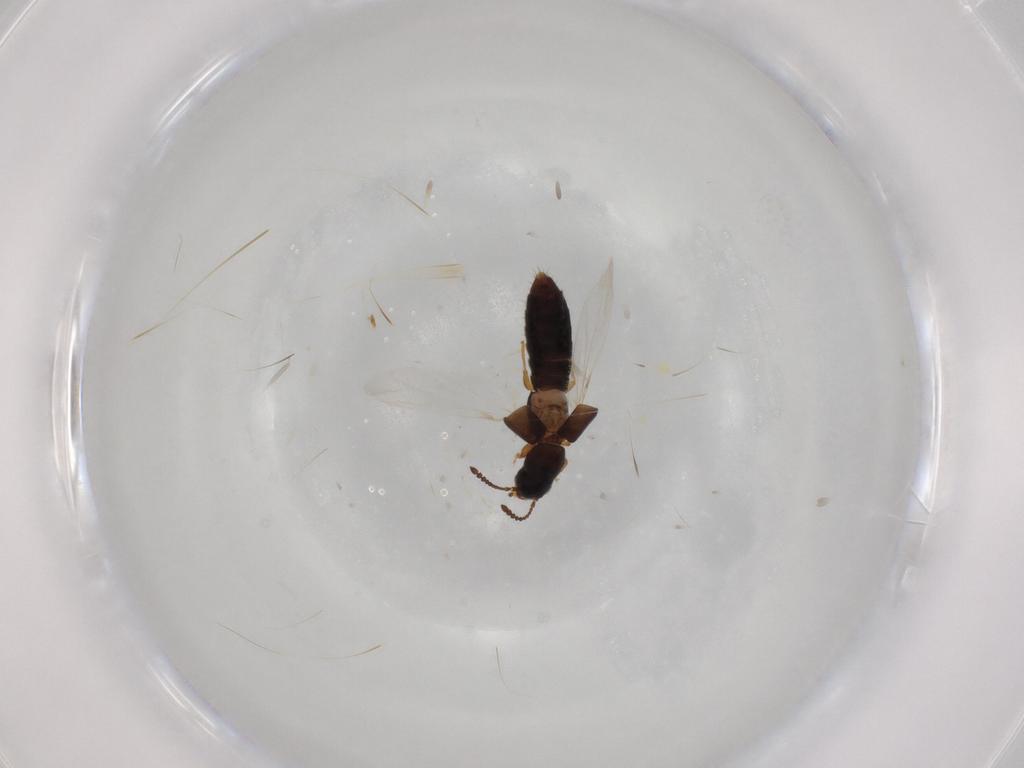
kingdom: Animalia
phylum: Arthropoda
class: Insecta
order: Coleoptera
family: Staphylinidae
